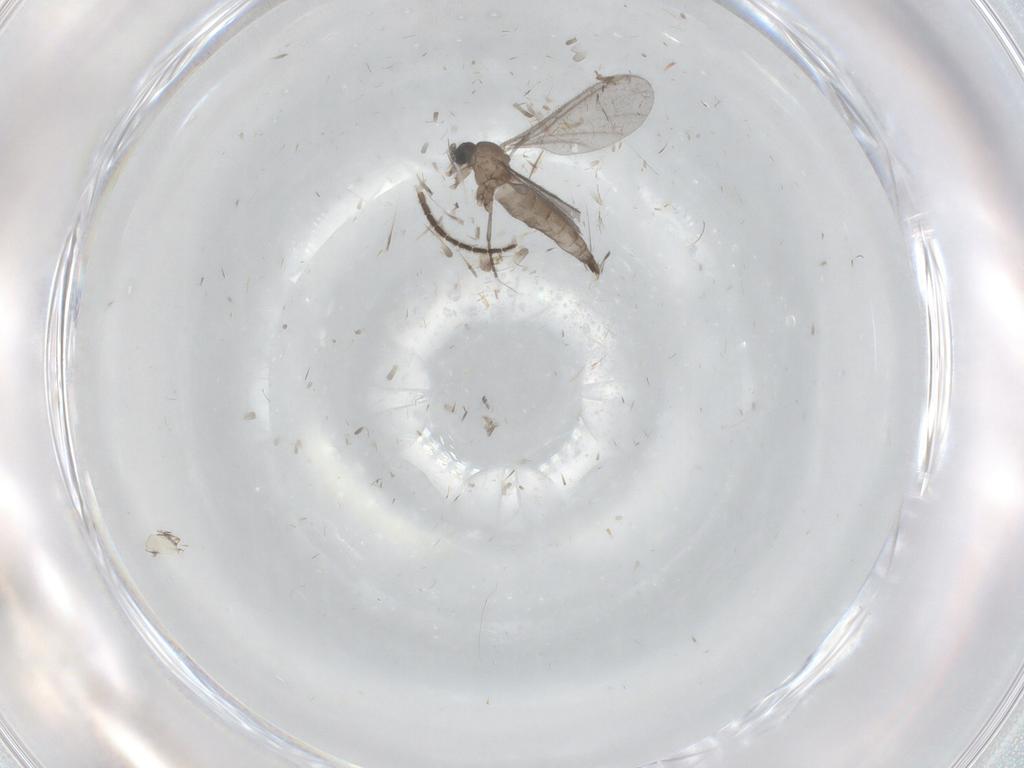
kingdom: Animalia
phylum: Arthropoda
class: Insecta
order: Diptera
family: Sciaridae
